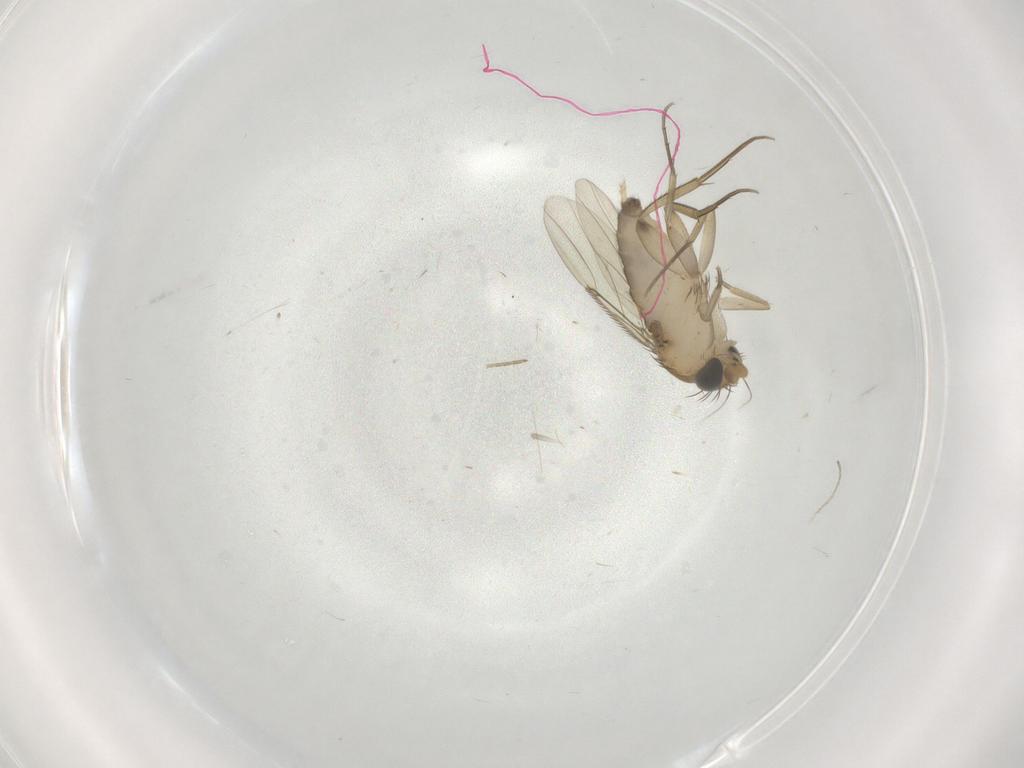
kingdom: Animalia
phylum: Arthropoda
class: Insecta
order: Diptera
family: Phoridae
